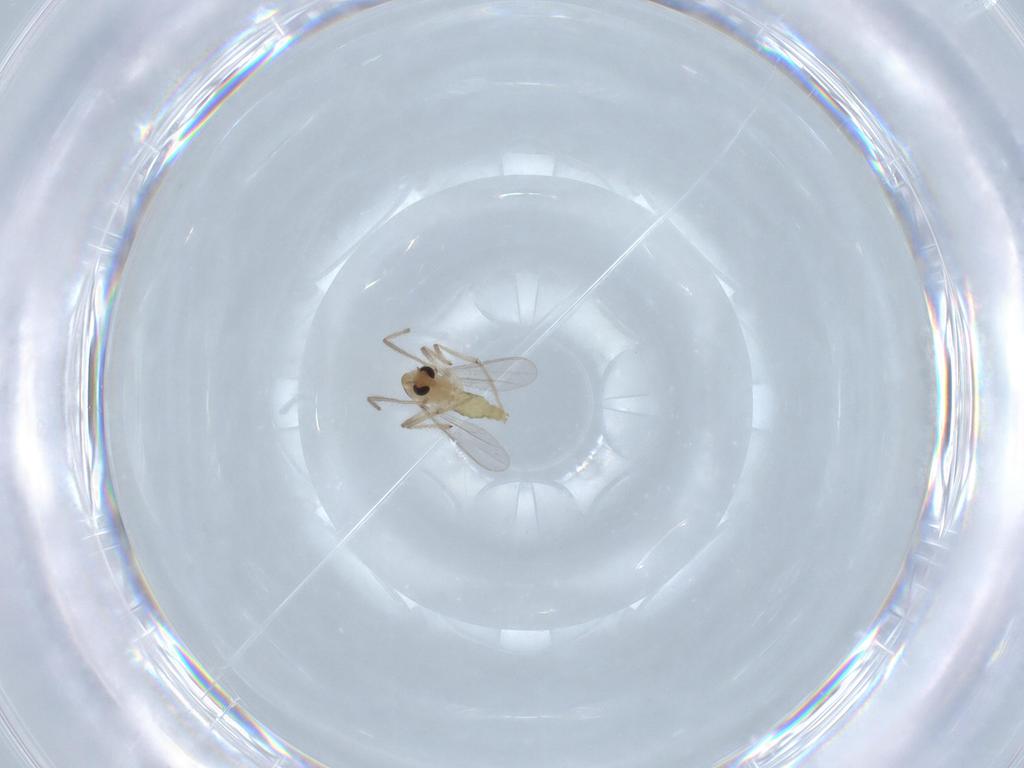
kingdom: Animalia
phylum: Arthropoda
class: Insecta
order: Diptera
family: Chironomidae
